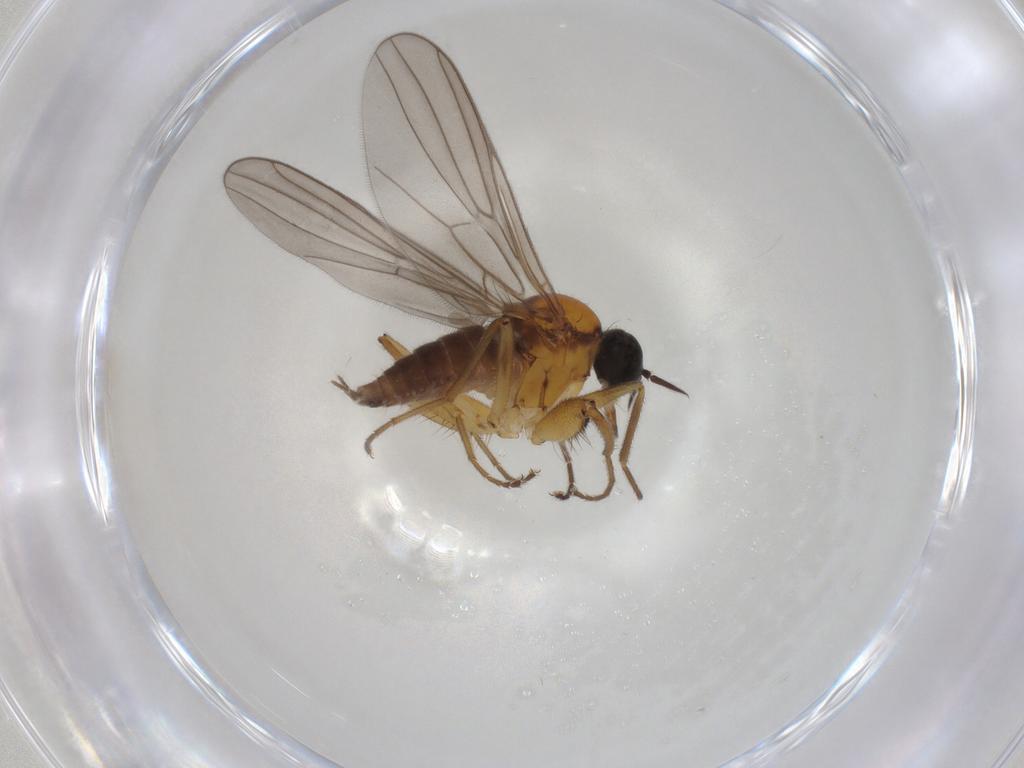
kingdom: Animalia
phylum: Arthropoda
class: Insecta
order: Diptera
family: Hybotidae
